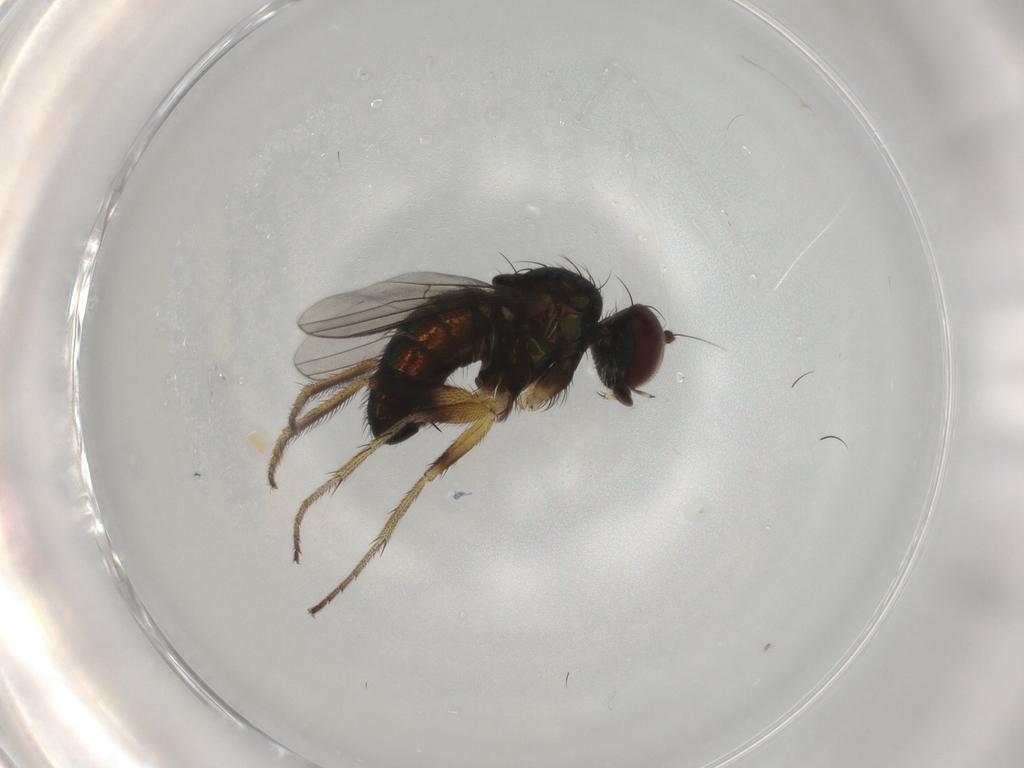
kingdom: Animalia
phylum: Arthropoda
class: Insecta
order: Diptera
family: Dolichopodidae
